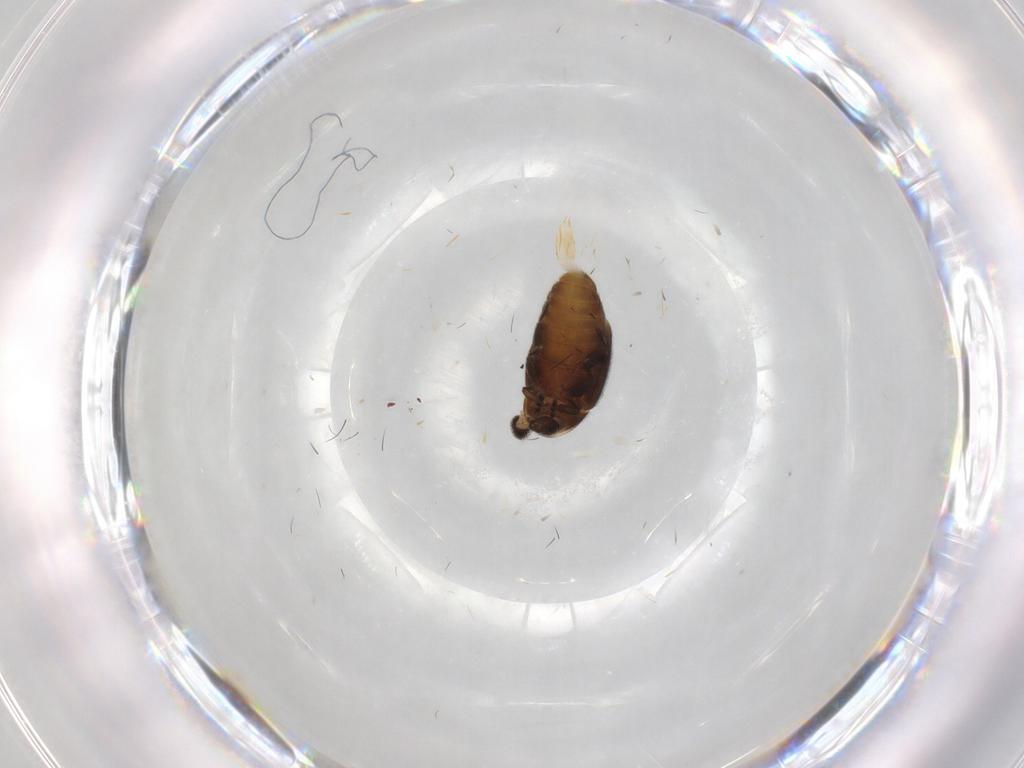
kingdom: Animalia
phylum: Arthropoda
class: Insecta
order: Coleoptera
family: Corylophidae
